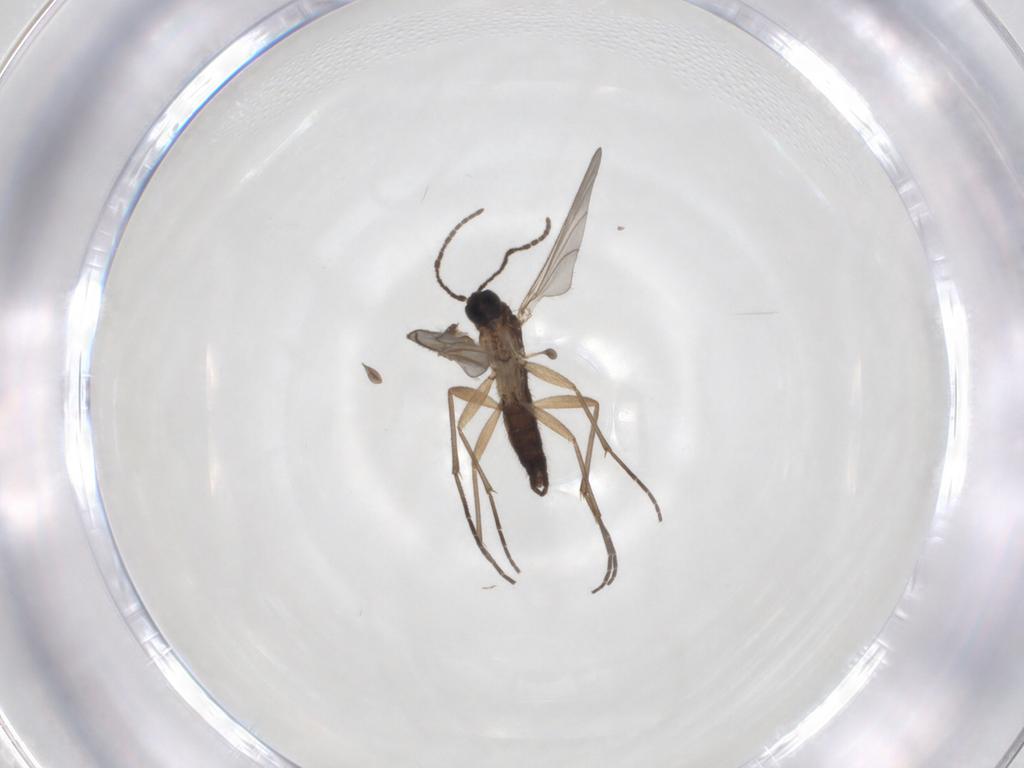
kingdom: Animalia
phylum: Arthropoda
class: Insecta
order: Diptera
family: Sciaridae
